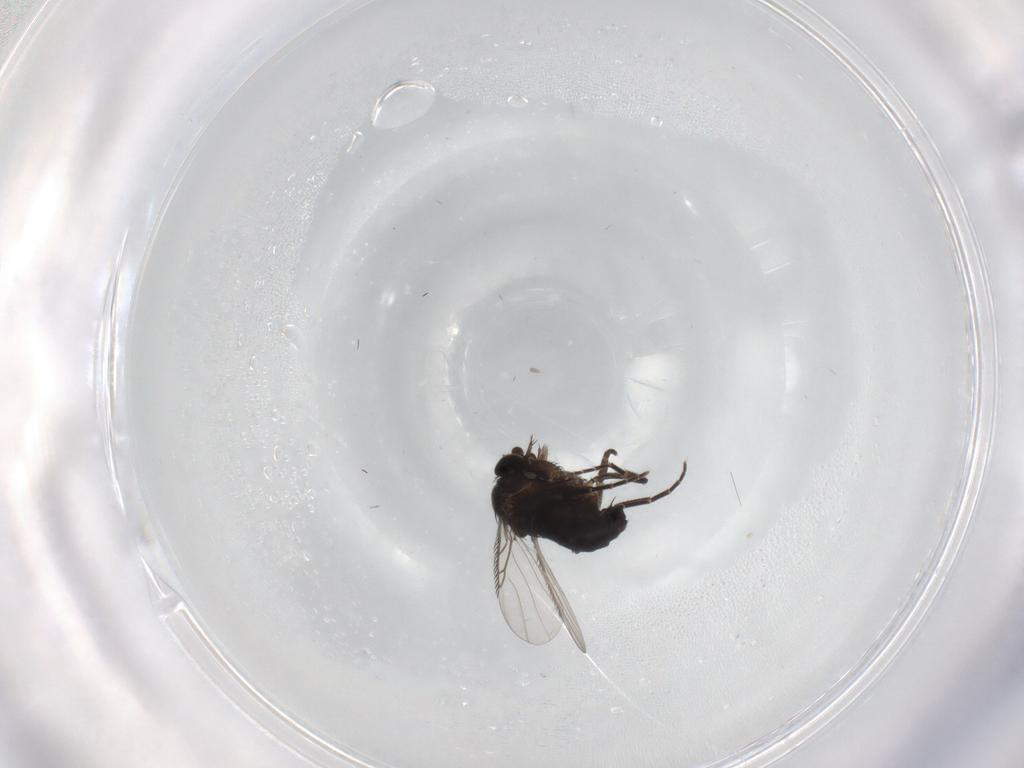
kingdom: Animalia
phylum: Arthropoda
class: Insecta
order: Diptera
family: Phoridae
